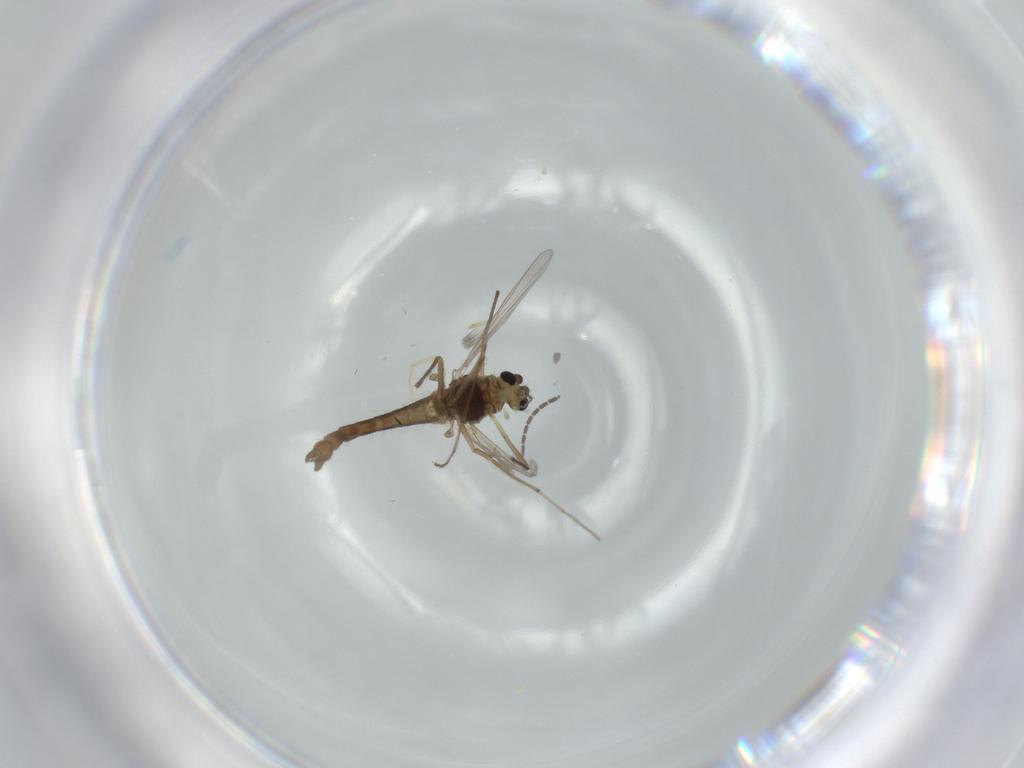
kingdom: Animalia
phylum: Arthropoda
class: Insecta
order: Diptera
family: Chironomidae
